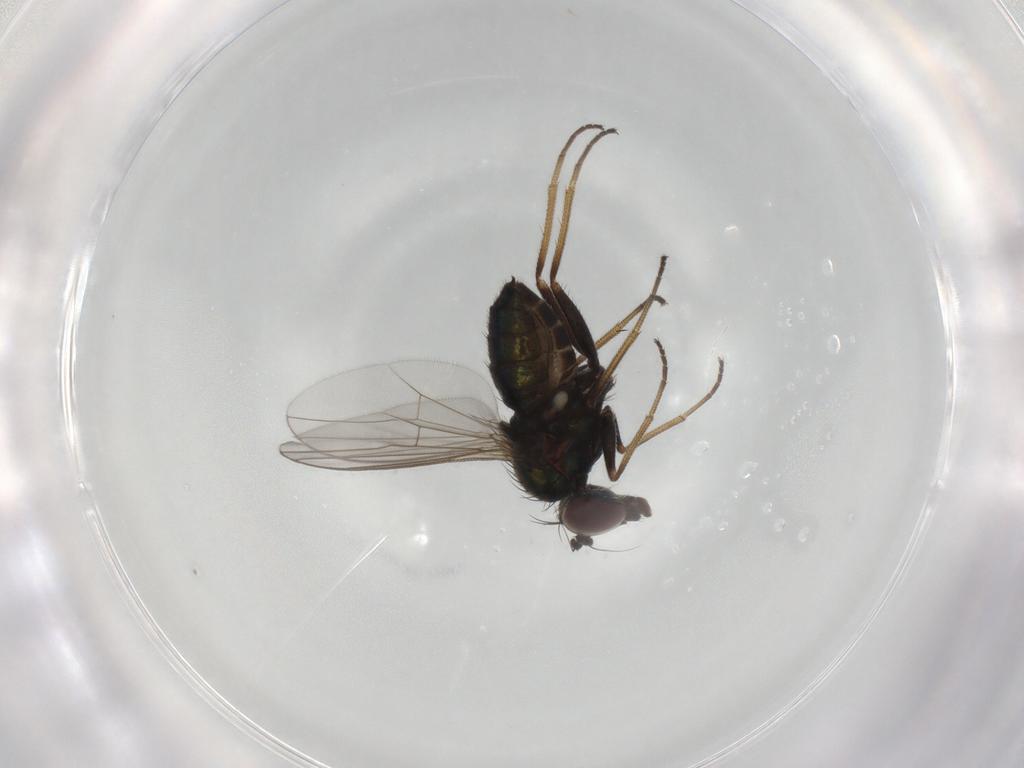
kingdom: Animalia
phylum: Arthropoda
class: Insecta
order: Diptera
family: Dolichopodidae
